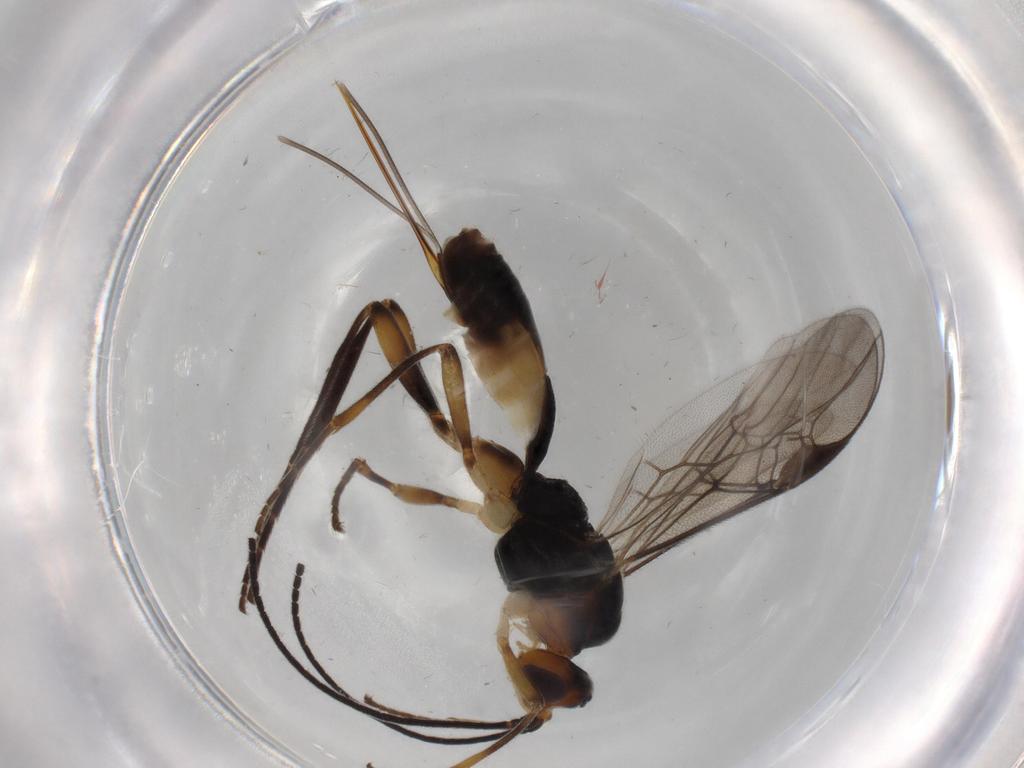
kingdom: Animalia
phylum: Arthropoda
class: Insecta
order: Hymenoptera
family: Braconidae
